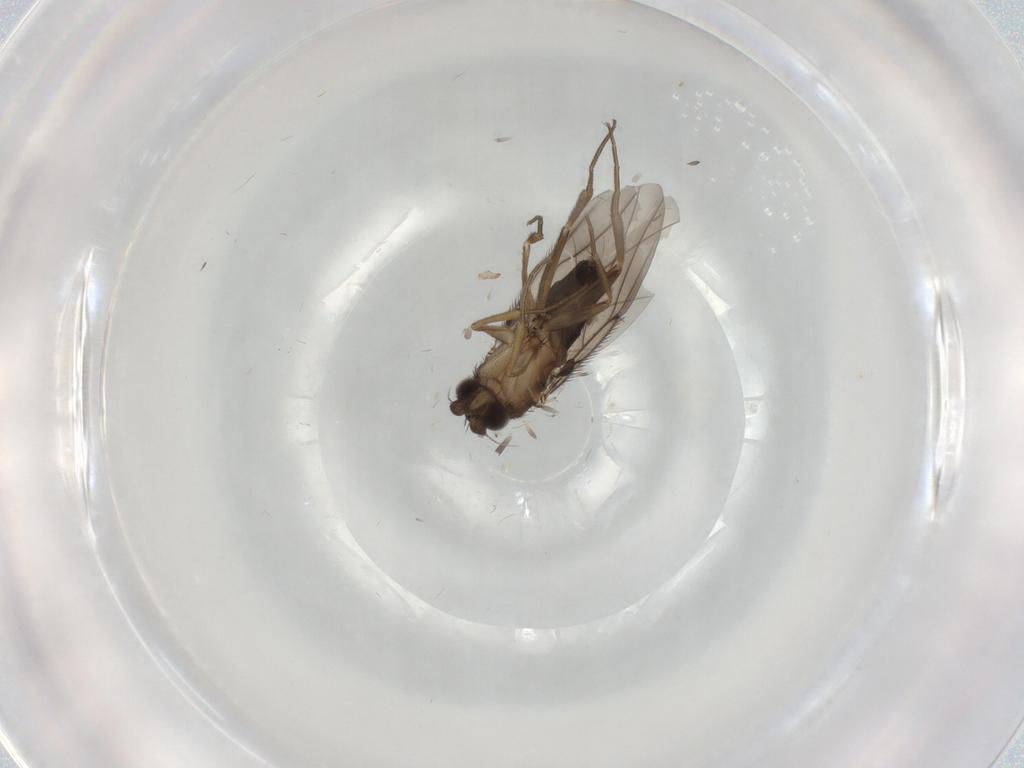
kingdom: Animalia
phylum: Arthropoda
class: Insecta
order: Diptera
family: Phoridae
